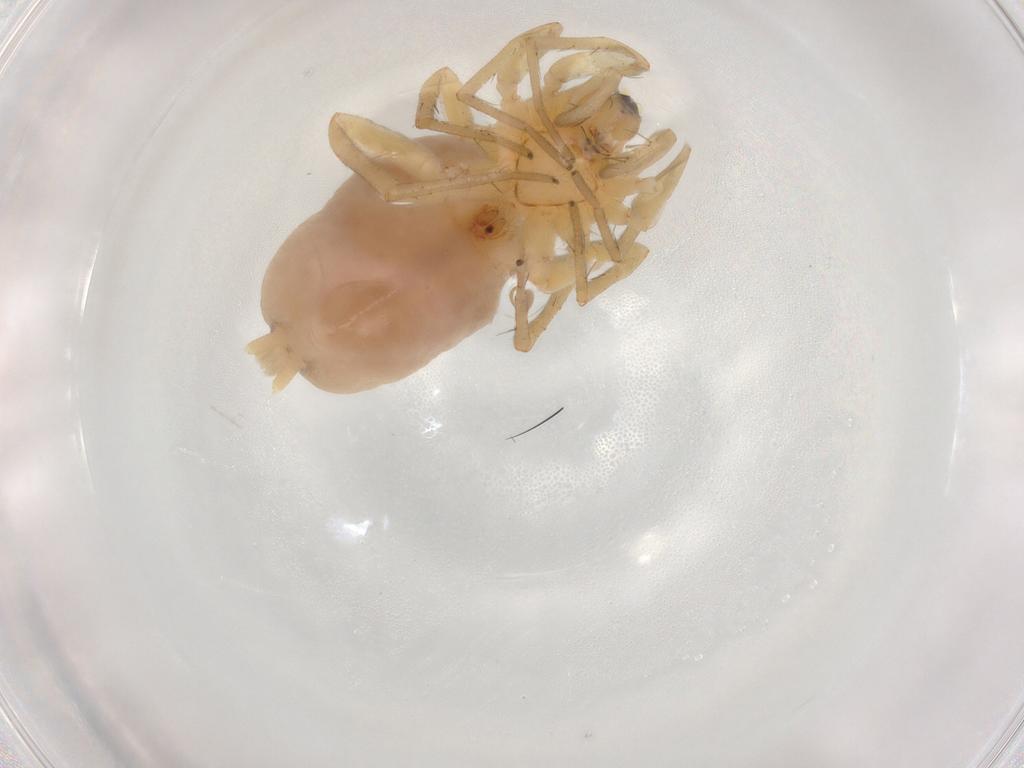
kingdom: Animalia
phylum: Arthropoda
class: Arachnida
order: Araneae
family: Gnaphosidae
